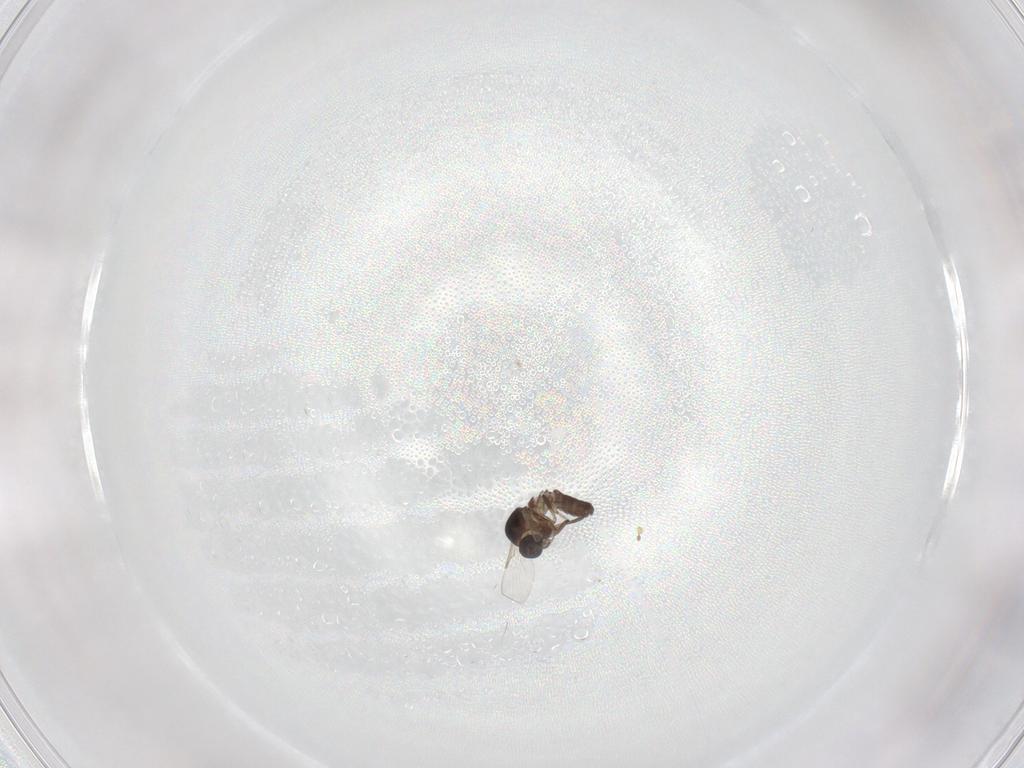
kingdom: Animalia
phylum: Arthropoda
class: Insecta
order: Diptera
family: Ceratopogonidae
